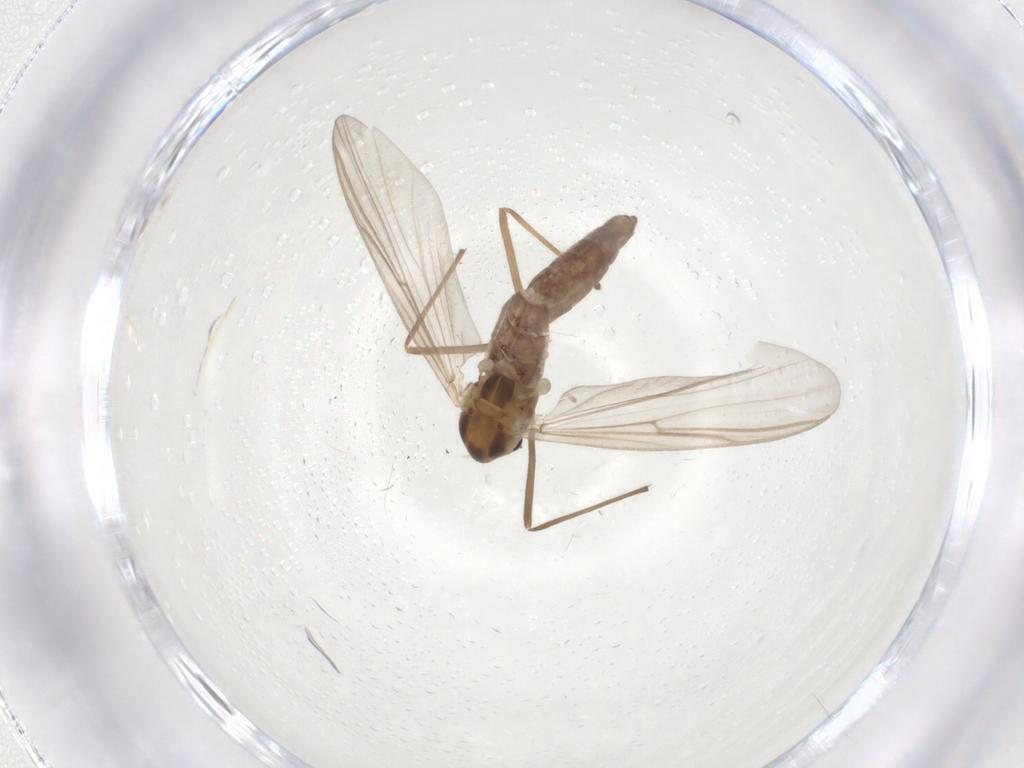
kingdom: Animalia
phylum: Arthropoda
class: Insecta
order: Diptera
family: Chironomidae
